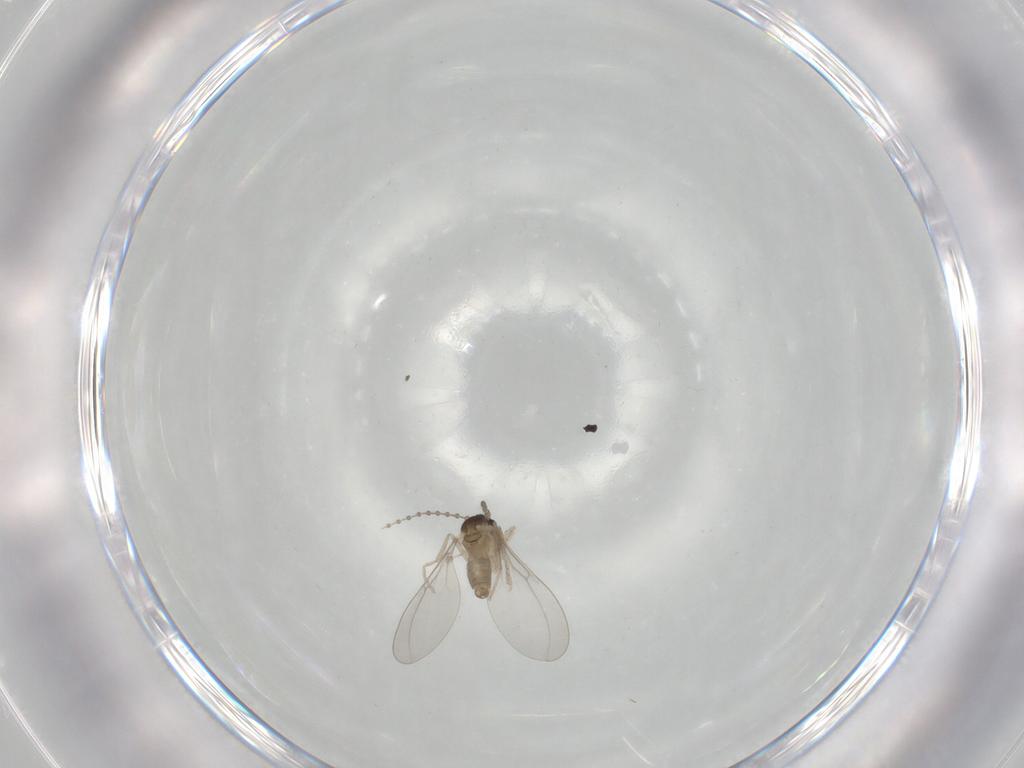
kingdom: Animalia
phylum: Arthropoda
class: Insecta
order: Diptera
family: Cecidomyiidae
